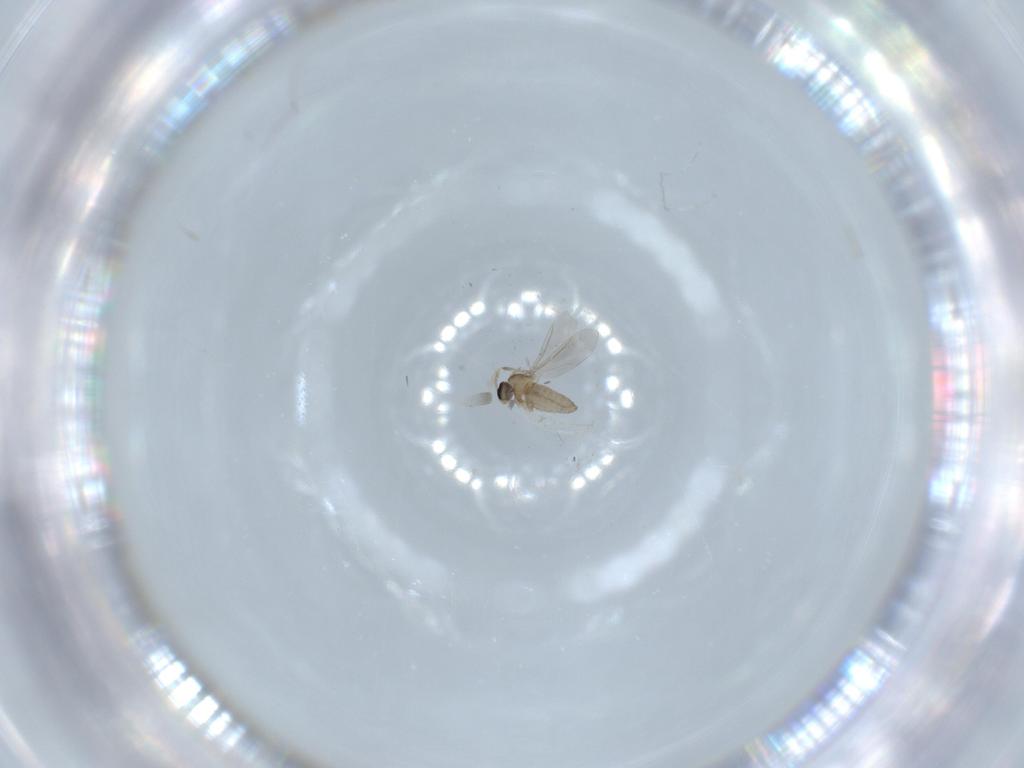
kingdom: Animalia
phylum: Arthropoda
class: Insecta
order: Diptera
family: Cecidomyiidae
